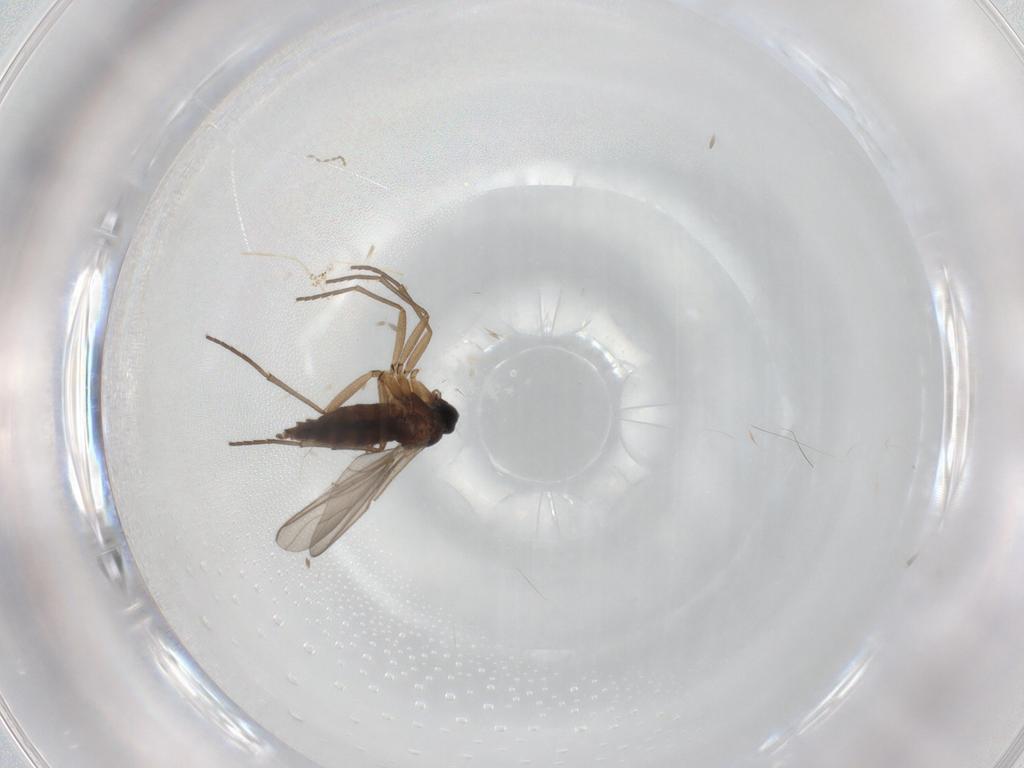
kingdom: Animalia
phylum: Arthropoda
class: Insecta
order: Diptera
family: Sciaridae
